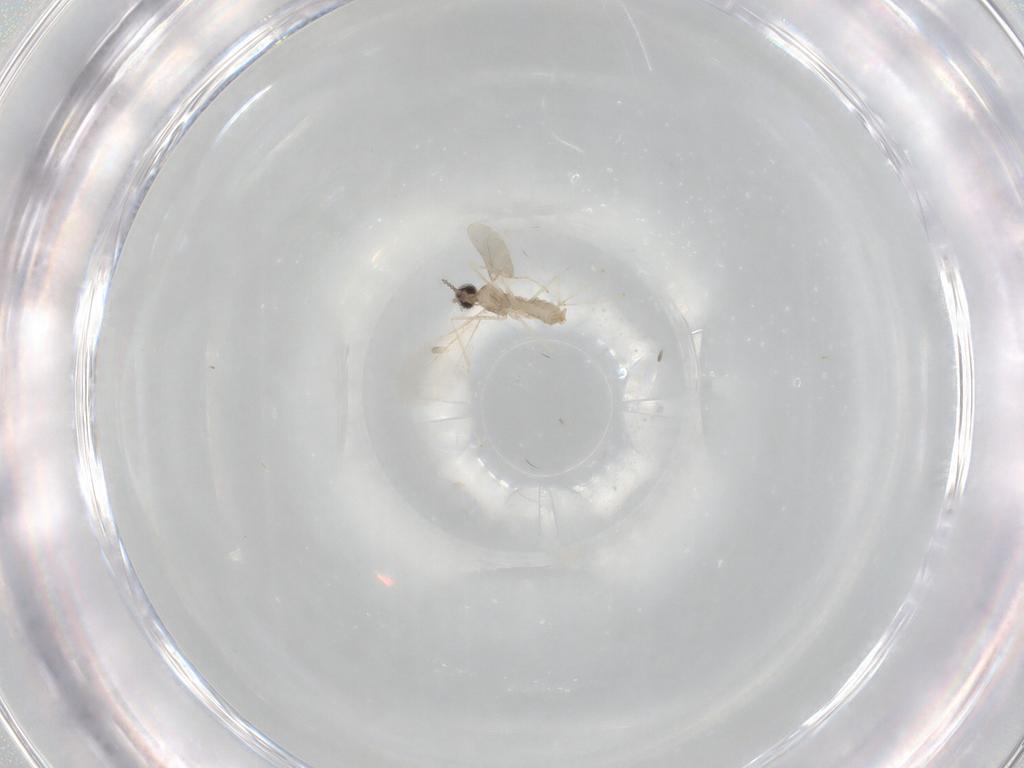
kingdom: Animalia
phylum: Arthropoda
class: Insecta
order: Diptera
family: Cecidomyiidae
